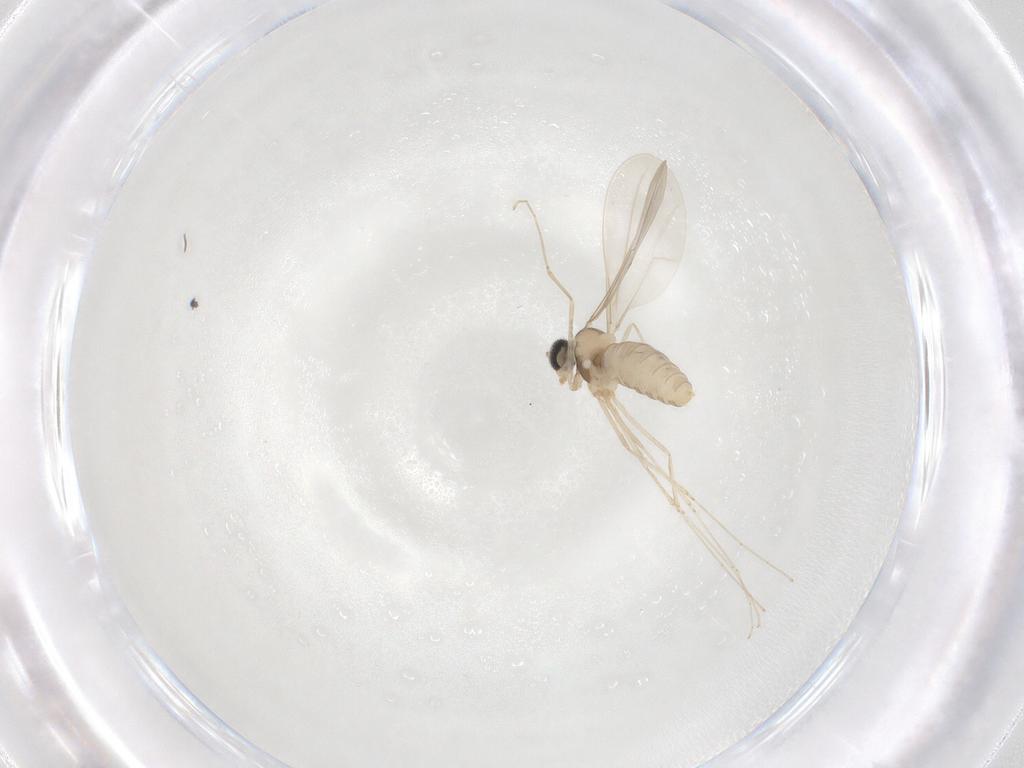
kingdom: Animalia
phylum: Arthropoda
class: Insecta
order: Diptera
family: Cecidomyiidae
